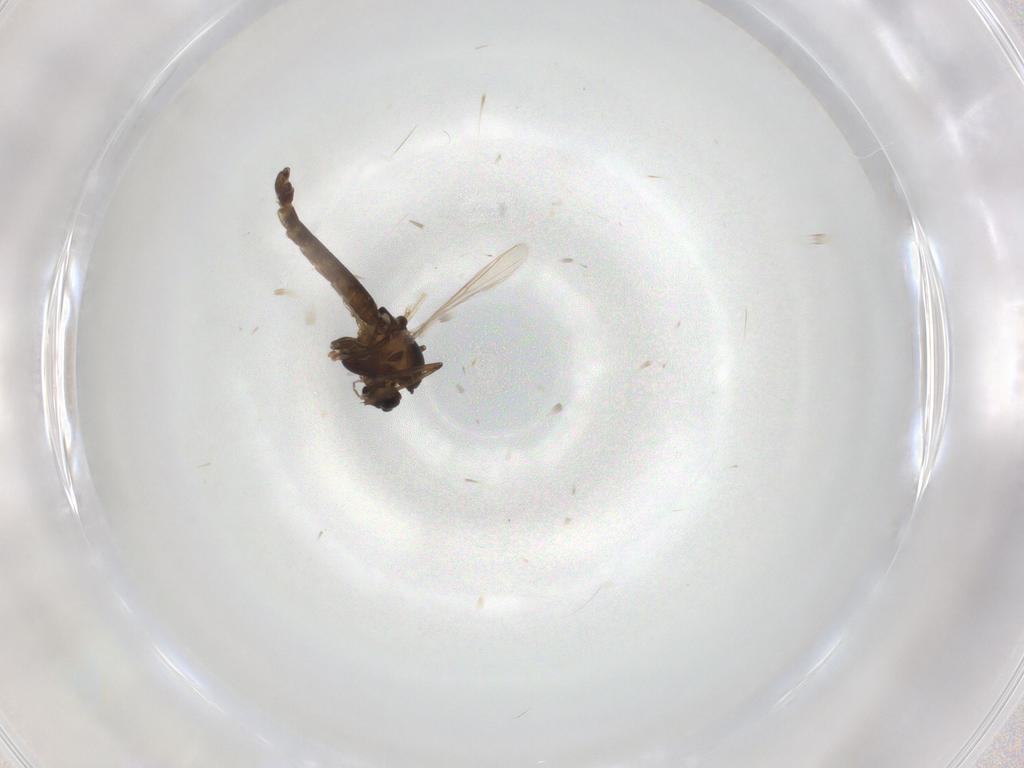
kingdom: Animalia
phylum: Arthropoda
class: Insecta
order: Diptera
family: Chironomidae
